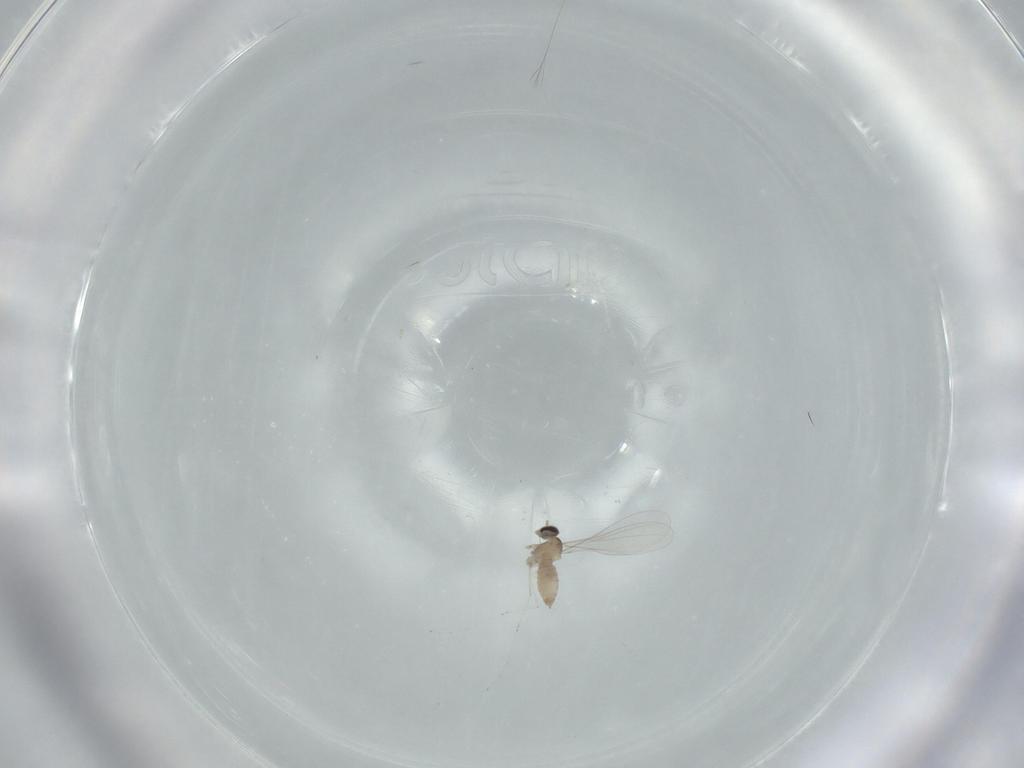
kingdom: Animalia
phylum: Arthropoda
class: Insecta
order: Diptera
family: Cecidomyiidae
